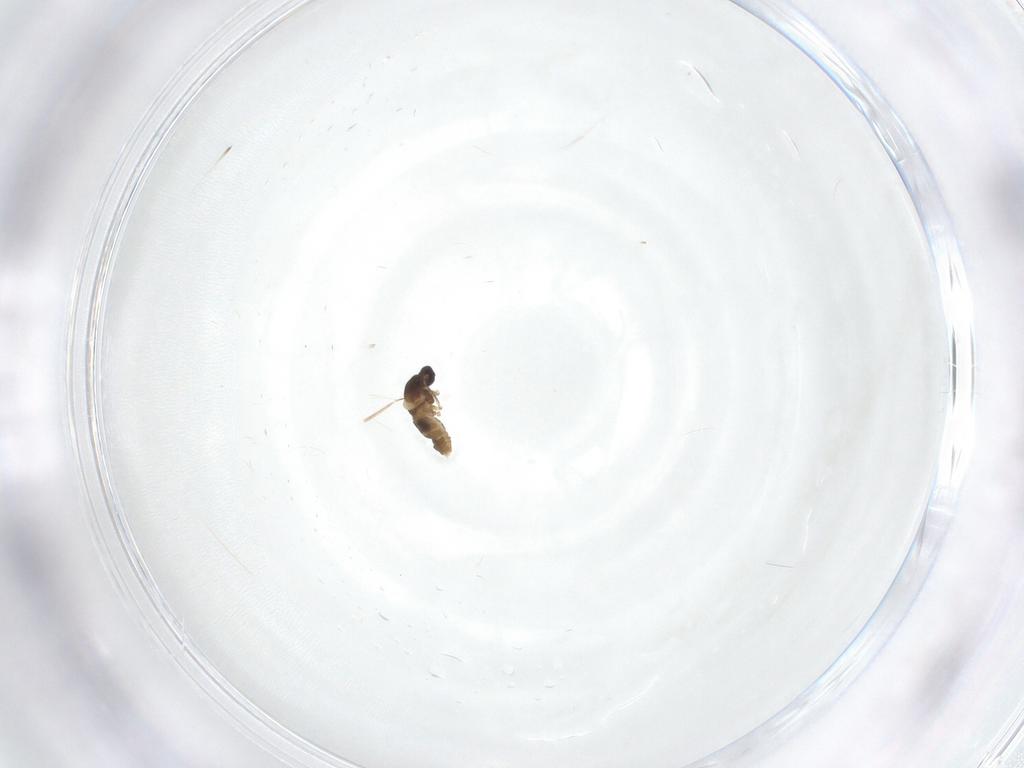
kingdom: Animalia
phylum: Arthropoda
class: Insecta
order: Diptera
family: Cecidomyiidae
